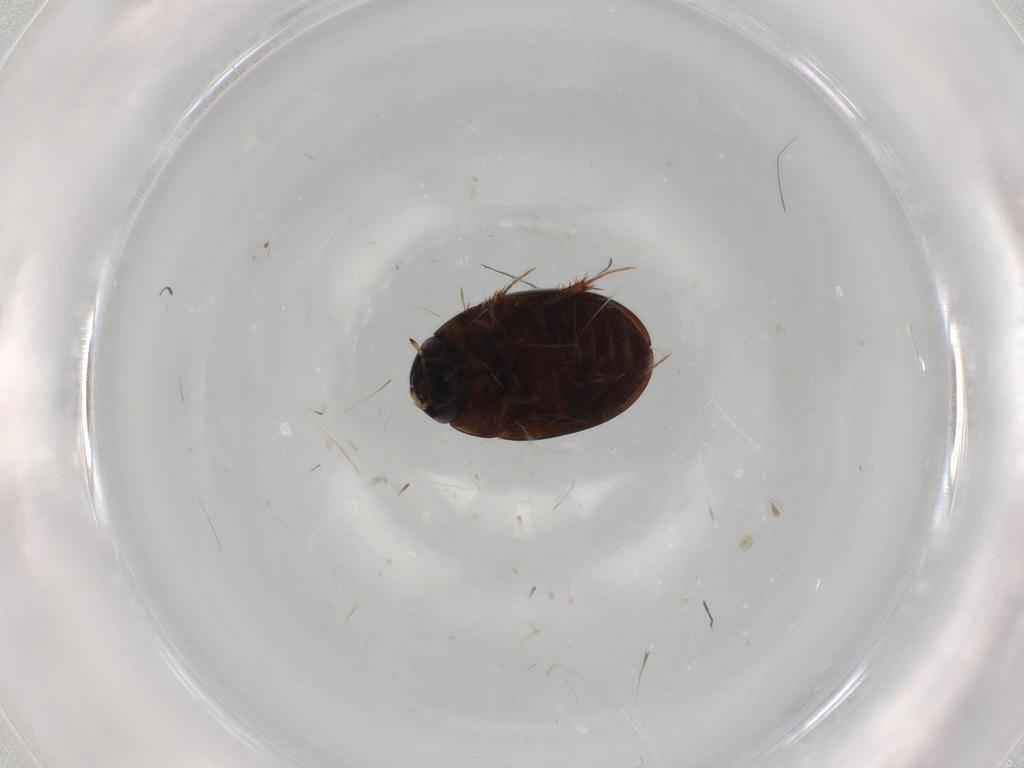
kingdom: Animalia
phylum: Arthropoda
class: Insecta
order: Coleoptera
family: Hydrophilidae
